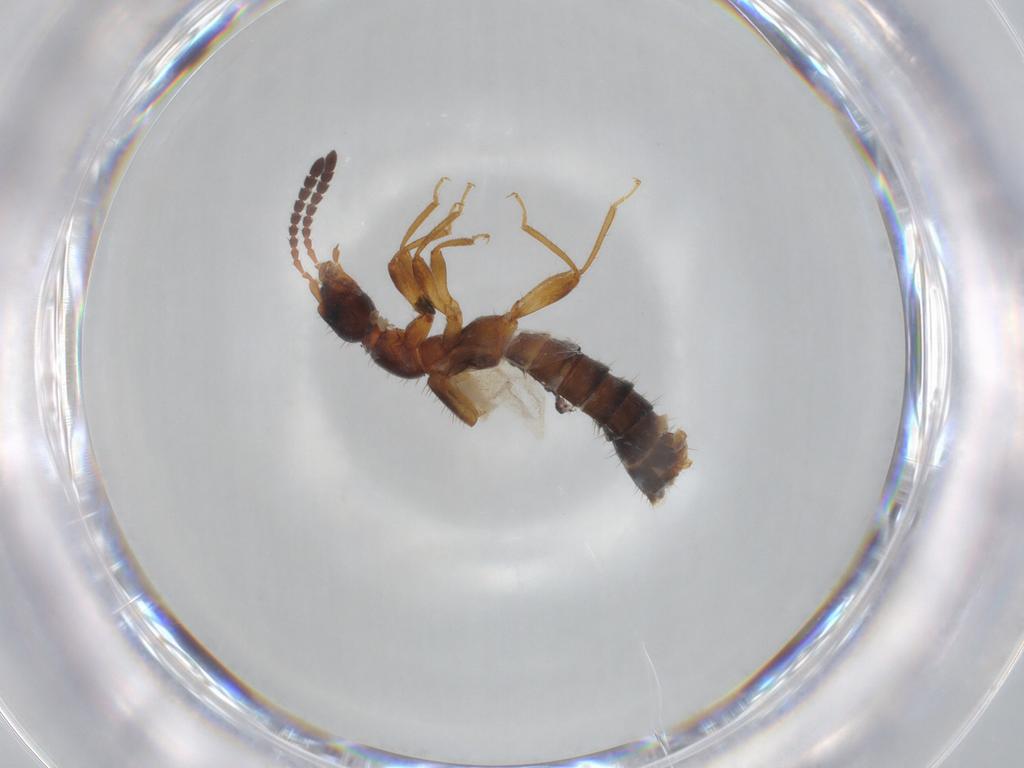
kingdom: Animalia
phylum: Arthropoda
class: Insecta
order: Coleoptera
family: Staphylinidae
